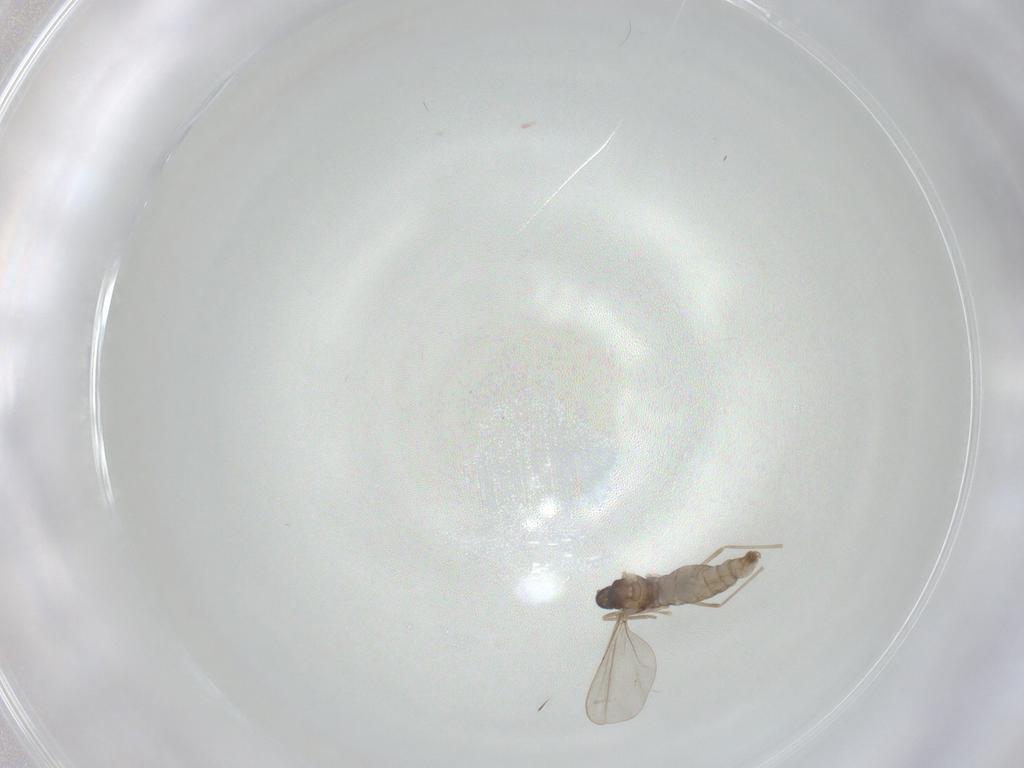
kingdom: Animalia
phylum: Arthropoda
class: Insecta
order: Diptera
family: Cecidomyiidae
